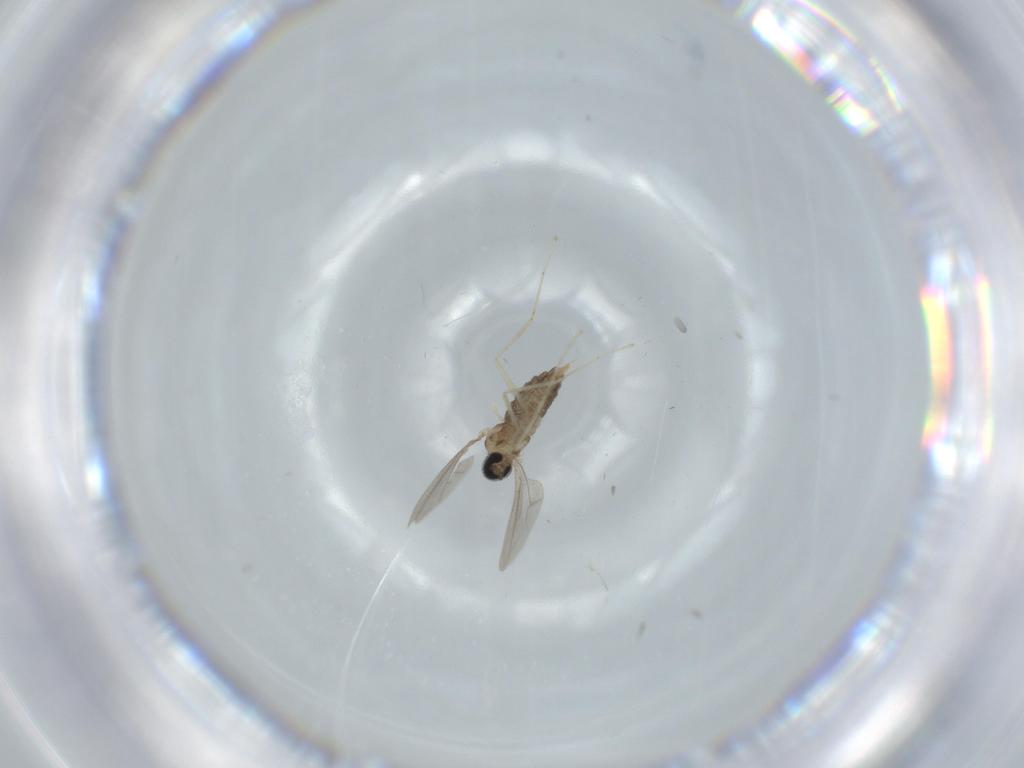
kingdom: Animalia
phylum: Arthropoda
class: Insecta
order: Diptera
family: Cecidomyiidae
